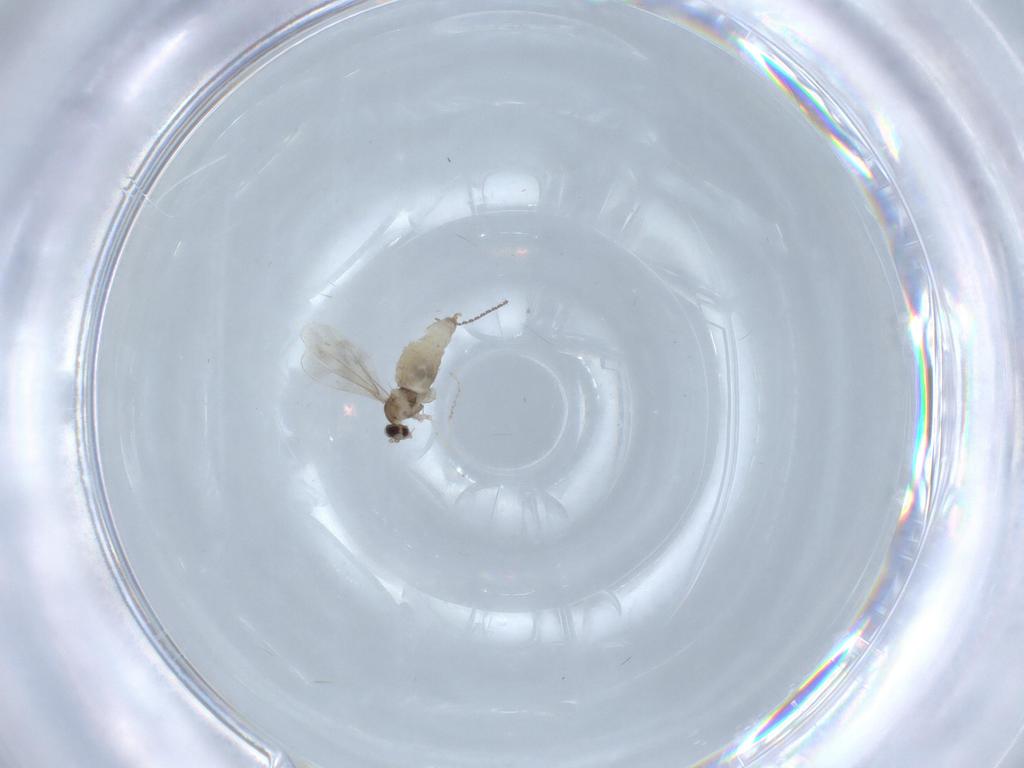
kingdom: Animalia
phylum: Arthropoda
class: Insecta
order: Diptera
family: Cecidomyiidae
